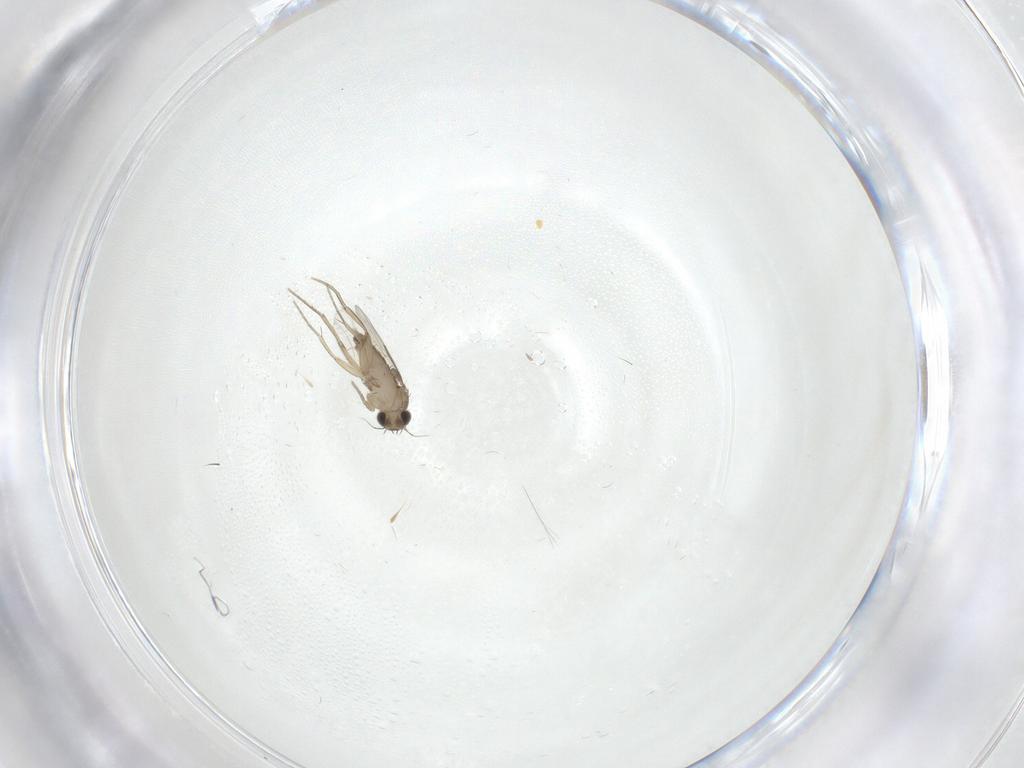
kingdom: Animalia
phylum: Arthropoda
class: Insecta
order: Diptera
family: Phoridae
